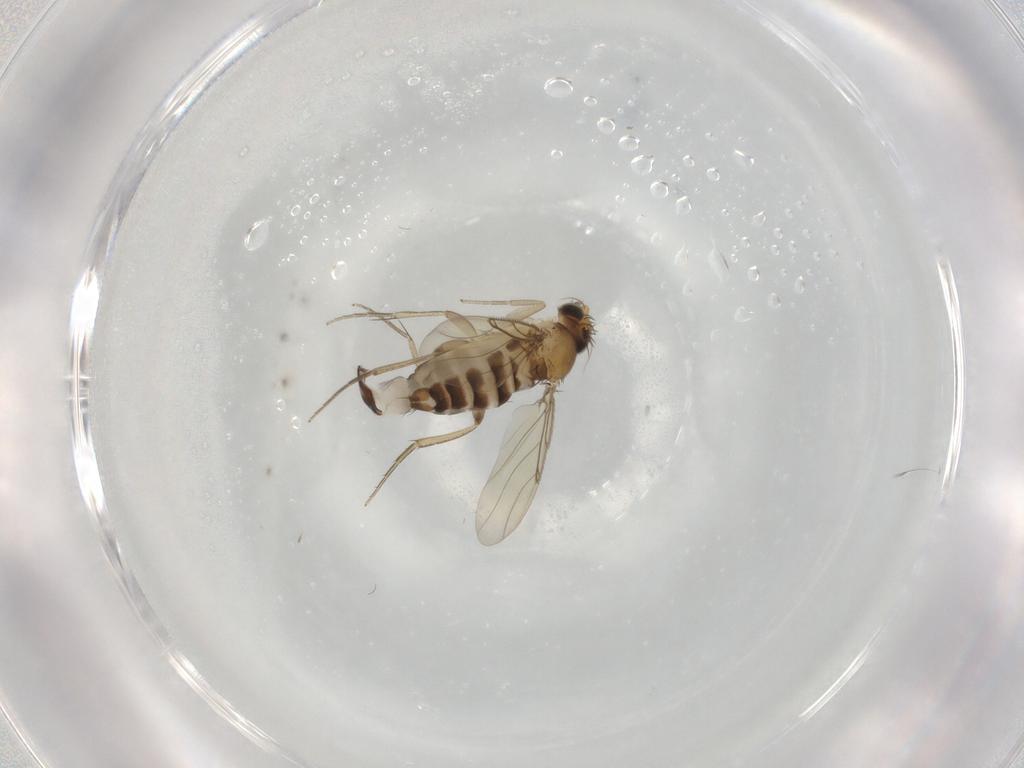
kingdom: Animalia
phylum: Arthropoda
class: Insecta
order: Diptera
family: Phoridae
